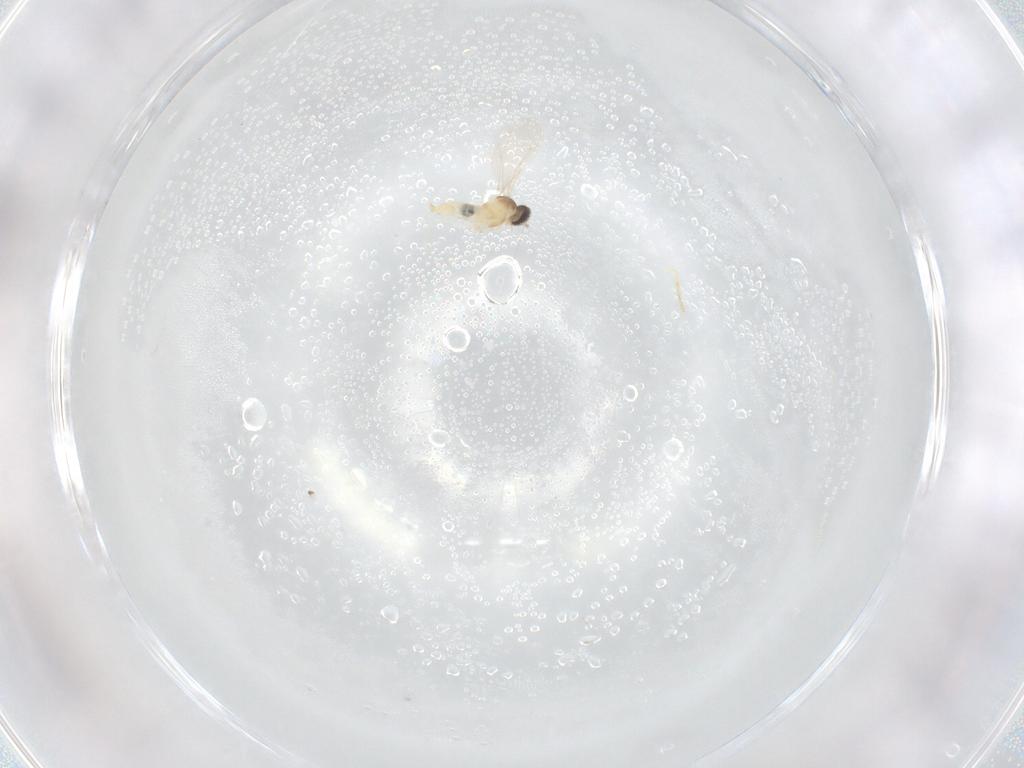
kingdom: Animalia
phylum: Arthropoda
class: Insecta
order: Diptera
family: Cecidomyiidae
